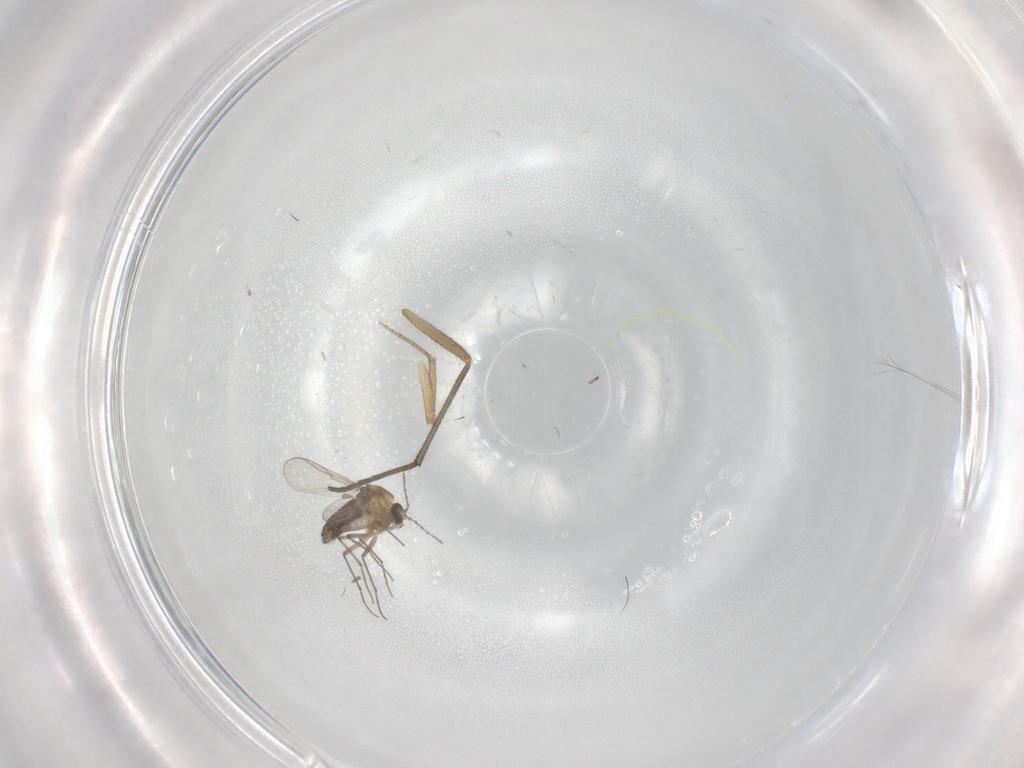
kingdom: Animalia
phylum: Arthropoda
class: Insecta
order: Diptera
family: Chironomidae
